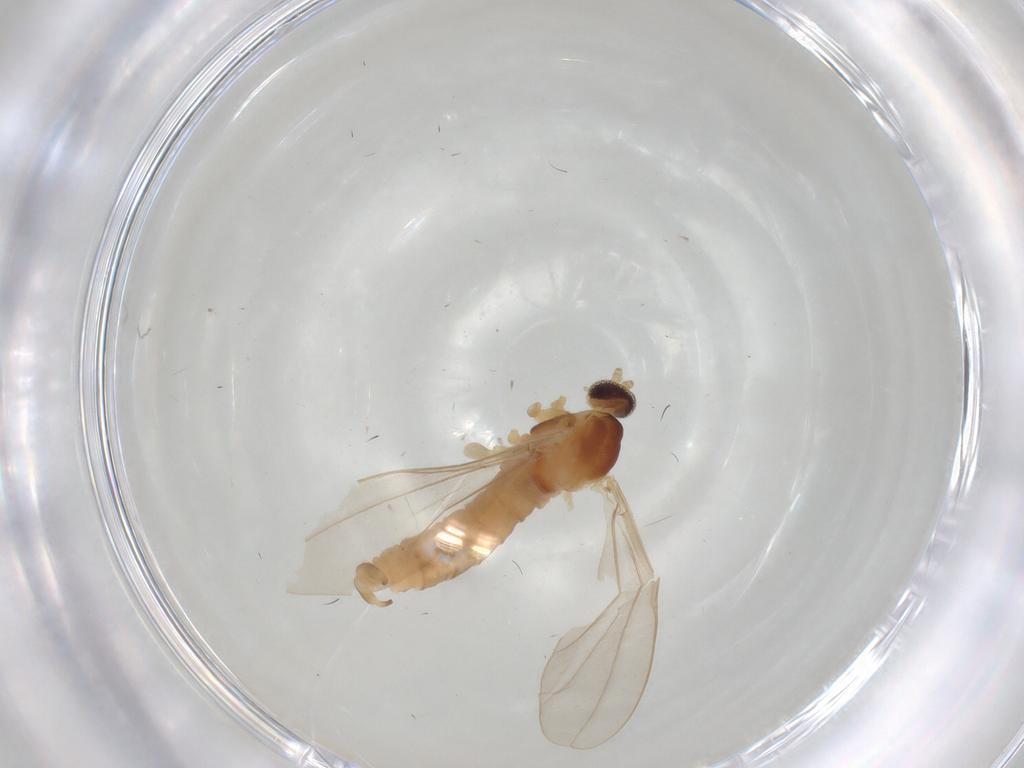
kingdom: Animalia
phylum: Arthropoda
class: Insecta
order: Diptera
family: Cecidomyiidae
